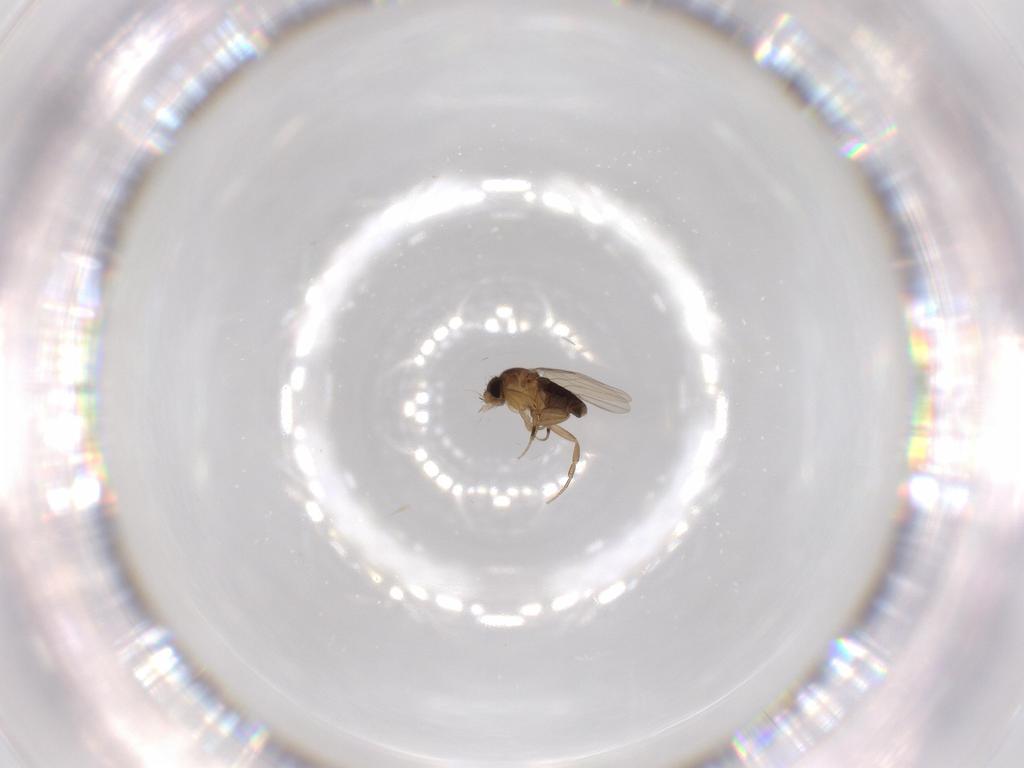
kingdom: Animalia
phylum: Arthropoda
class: Insecta
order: Diptera
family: Phoridae
